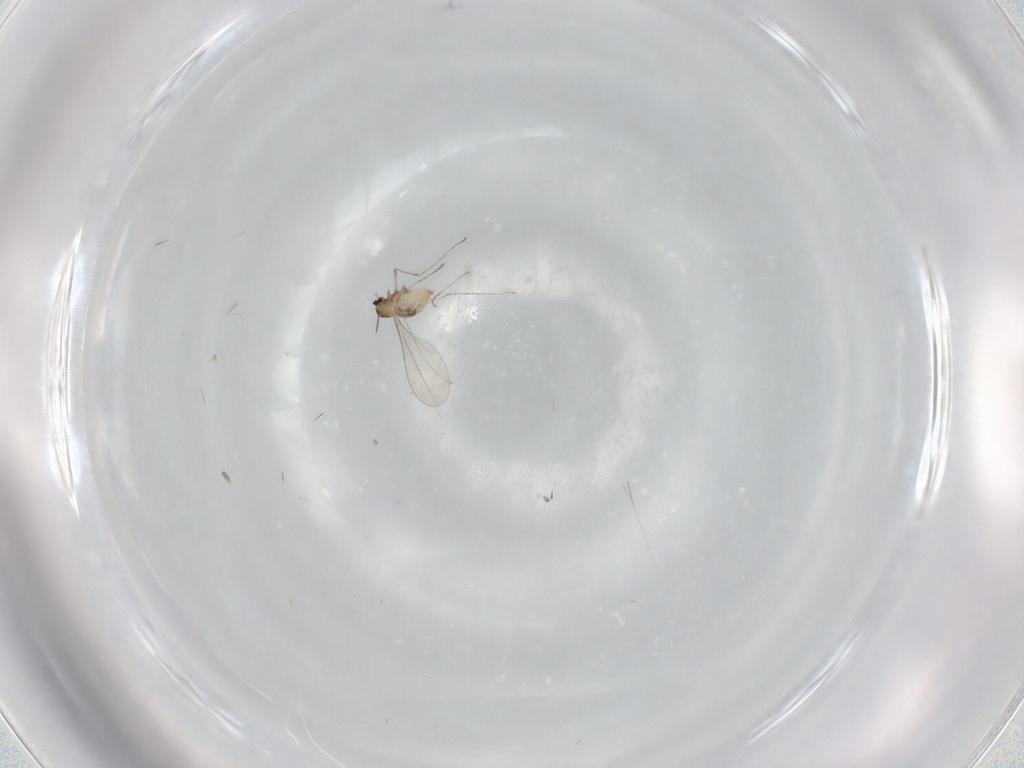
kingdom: Animalia
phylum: Arthropoda
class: Insecta
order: Diptera
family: Cecidomyiidae
